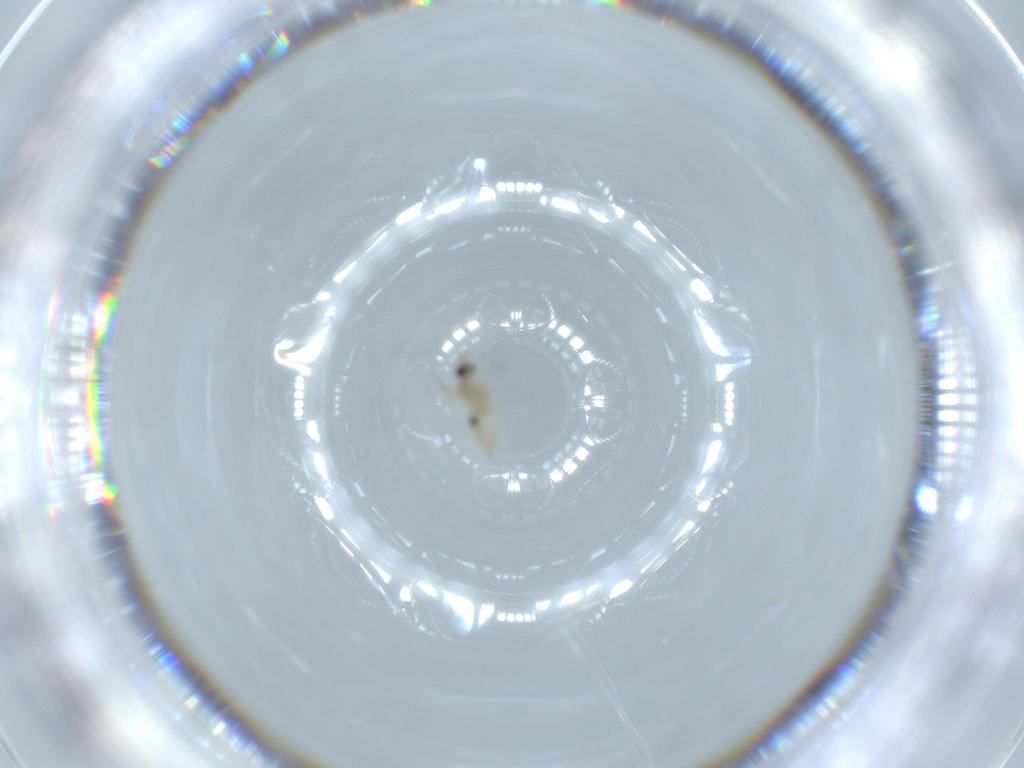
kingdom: Animalia
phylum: Arthropoda
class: Insecta
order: Diptera
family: Cecidomyiidae
